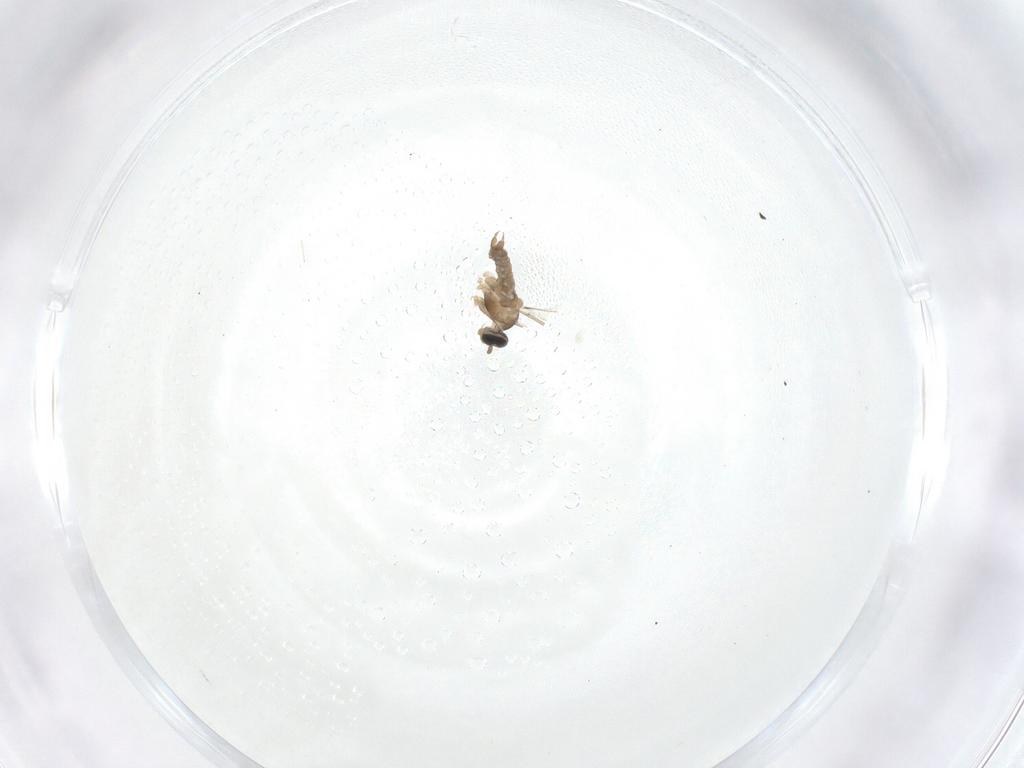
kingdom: Animalia
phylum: Arthropoda
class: Insecta
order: Diptera
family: Cecidomyiidae
